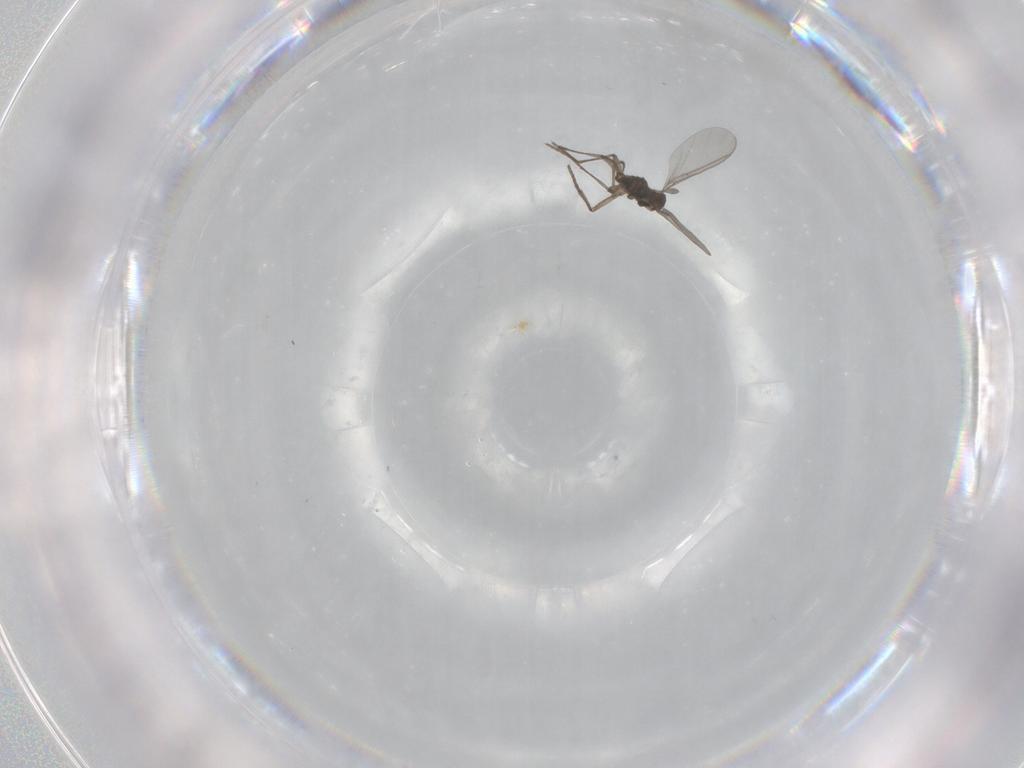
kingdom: Animalia
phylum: Arthropoda
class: Insecta
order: Diptera
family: Sciaridae
